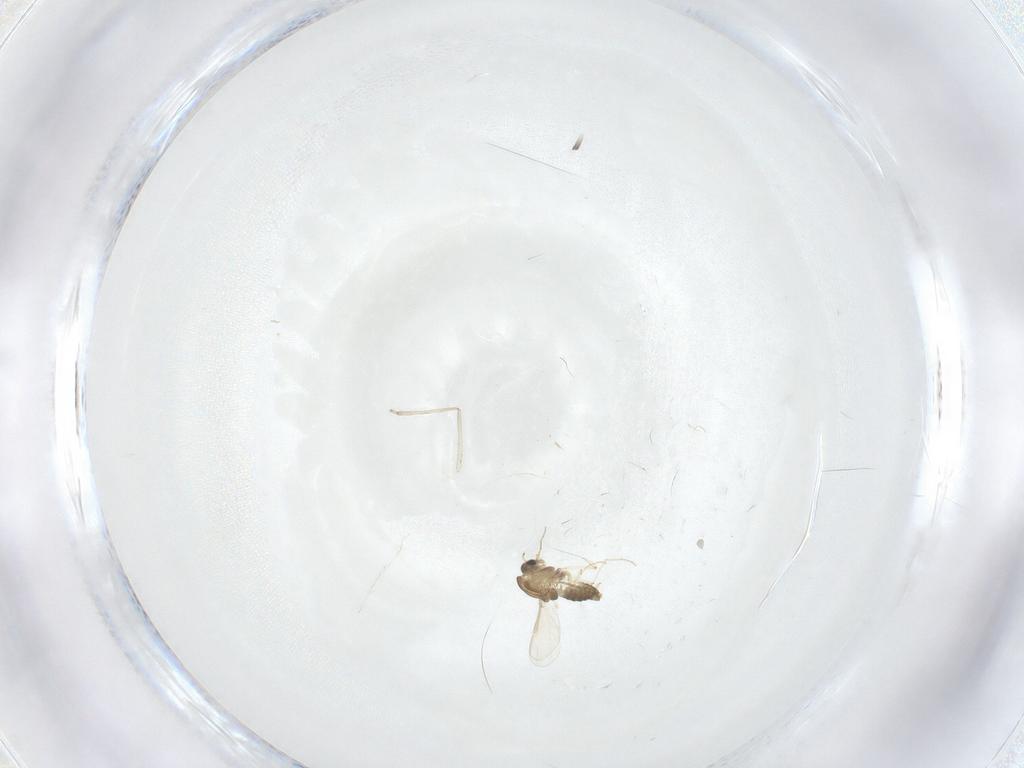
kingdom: Animalia
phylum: Arthropoda
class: Insecta
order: Diptera
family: Chironomidae
